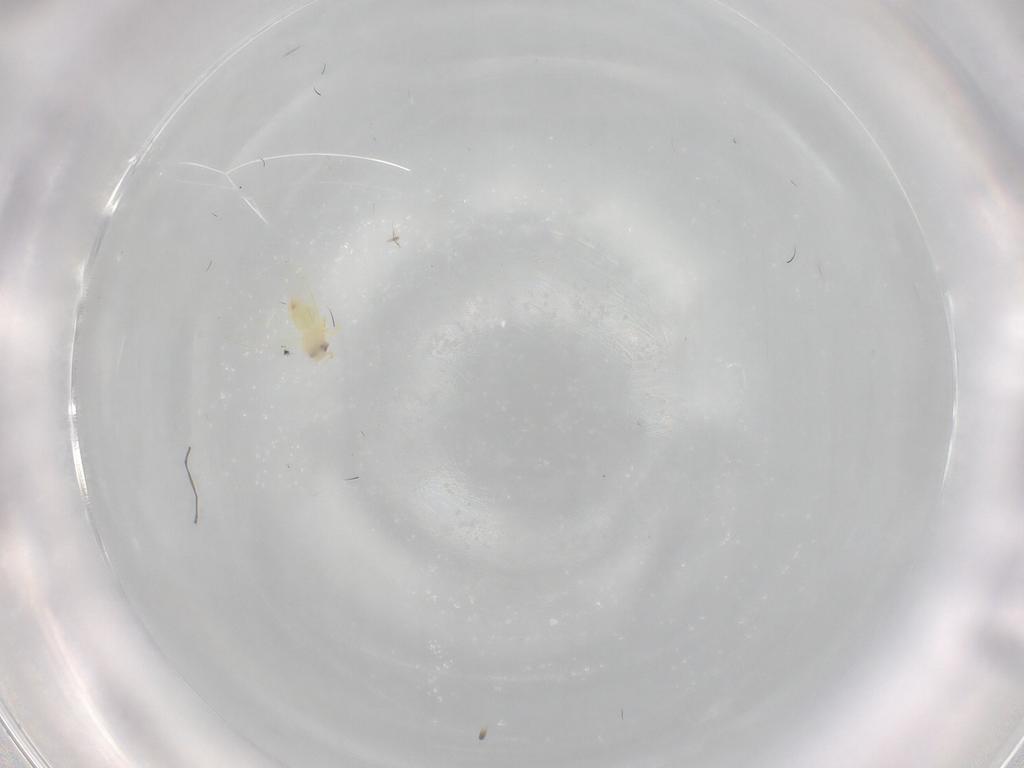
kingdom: Animalia
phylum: Arthropoda
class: Insecta
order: Hemiptera
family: Aleyrodidae
